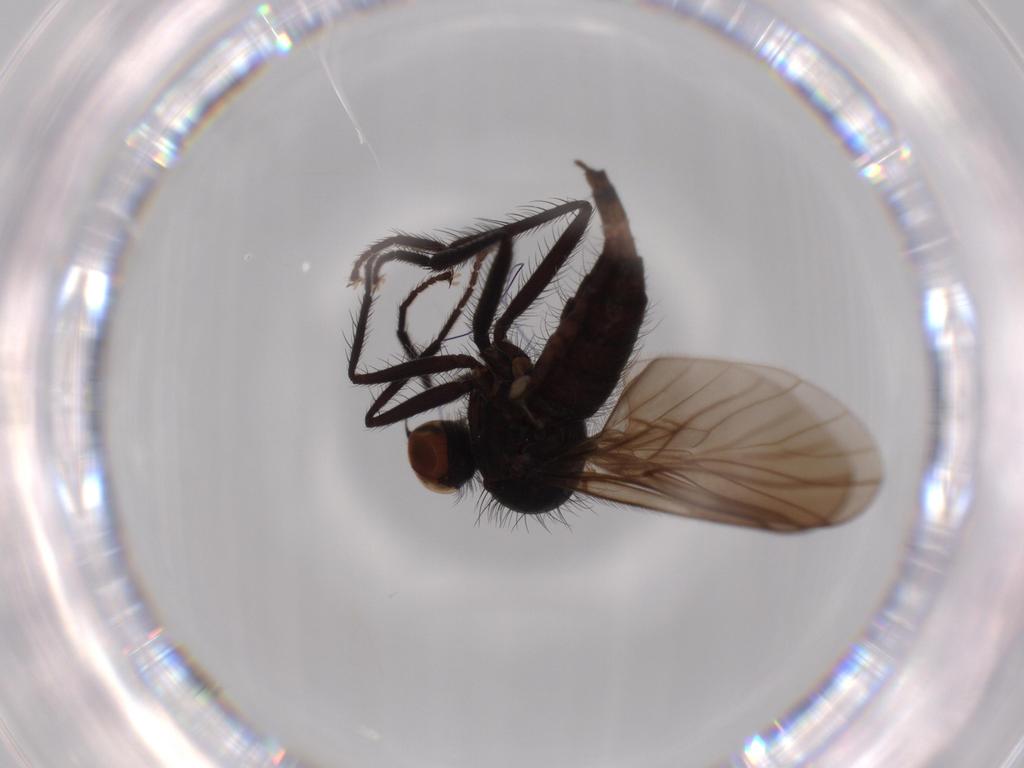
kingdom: Animalia
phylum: Arthropoda
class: Insecta
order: Diptera
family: Hybotidae
